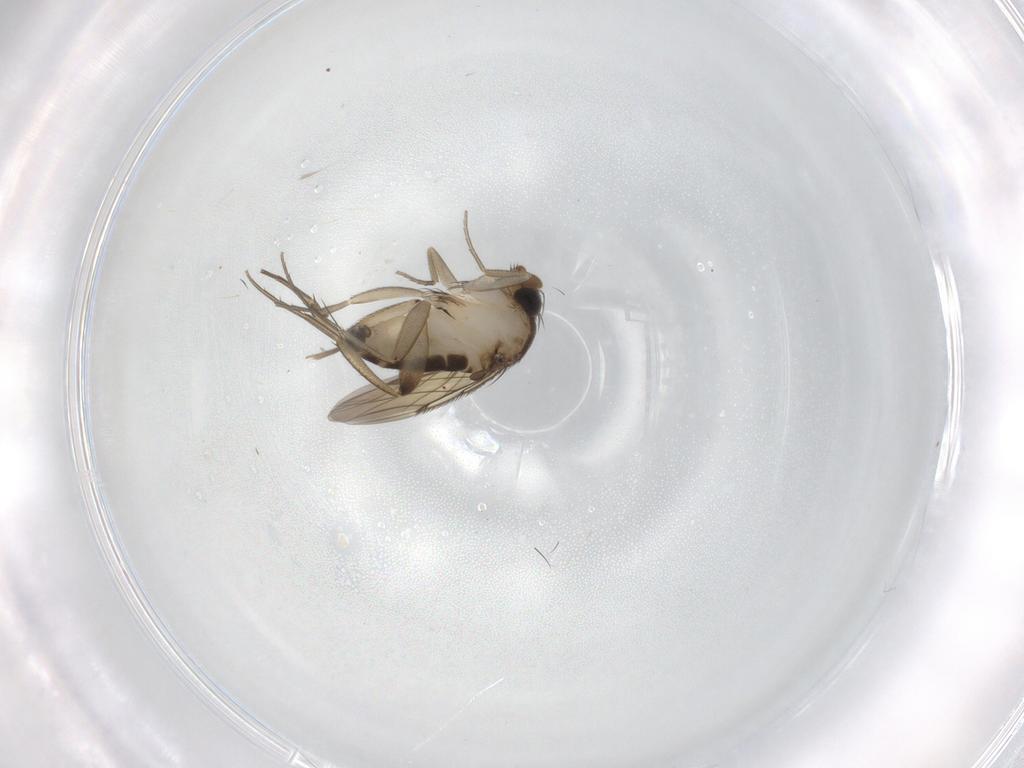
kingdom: Animalia
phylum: Arthropoda
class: Insecta
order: Diptera
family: Phoridae
